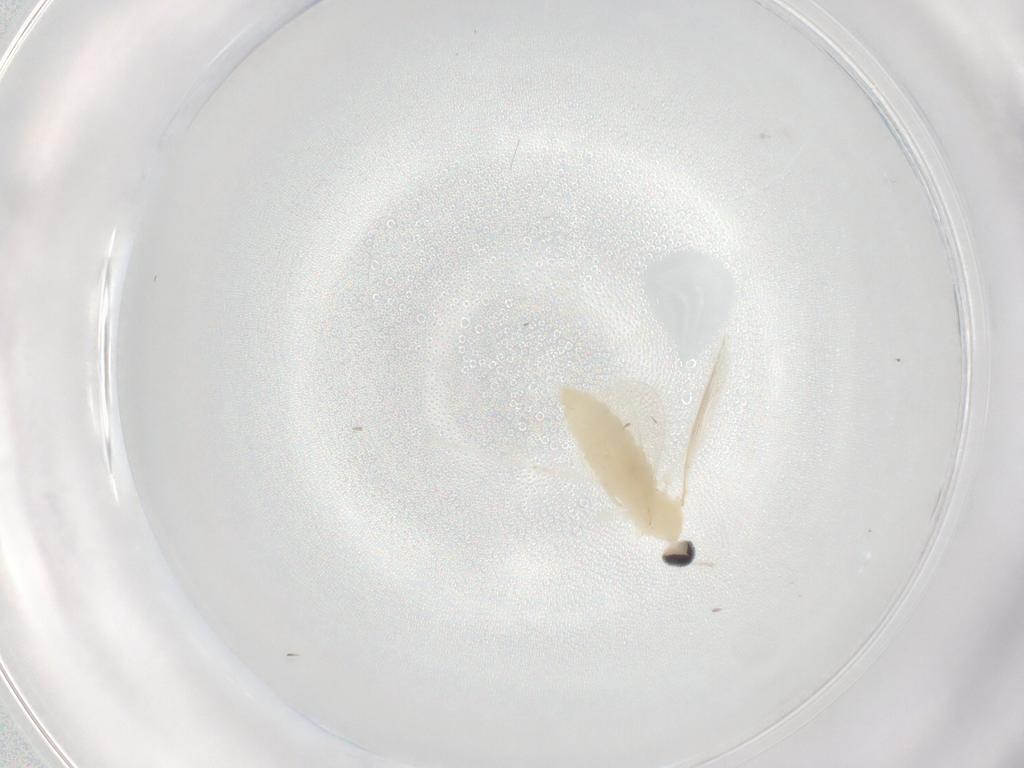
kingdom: Animalia
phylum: Arthropoda
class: Insecta
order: Diptera
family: Cecidomyiidae
